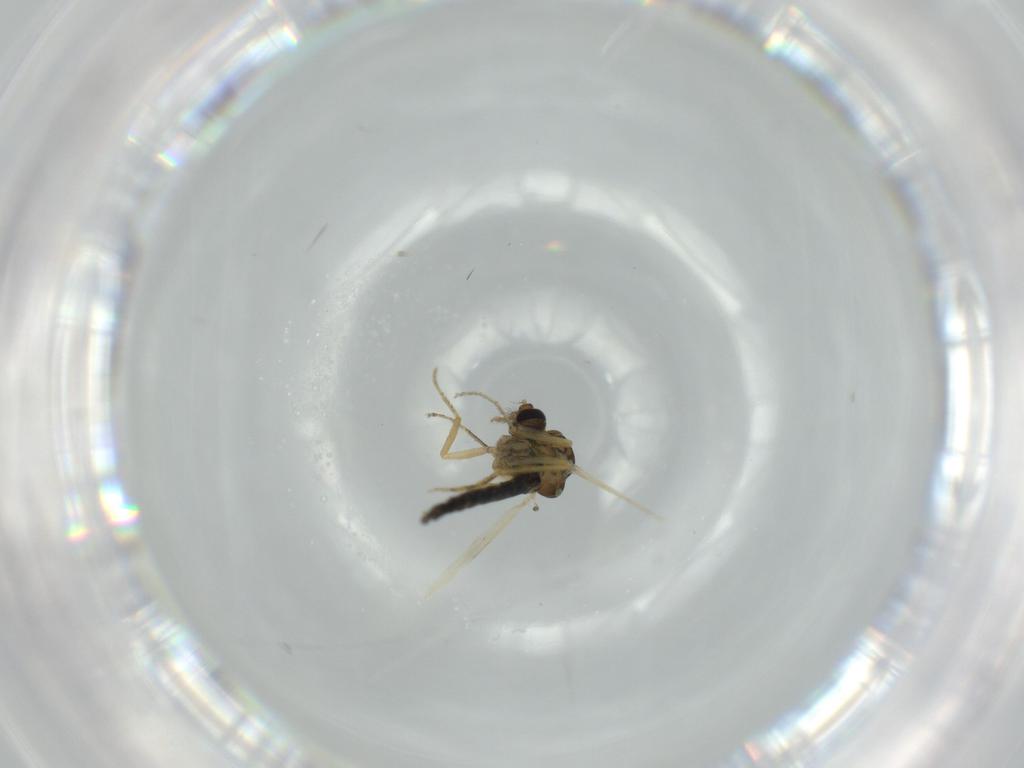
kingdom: Animalia
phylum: Arthropoda
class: Insecta
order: Diptera
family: Ceratopogonidae
